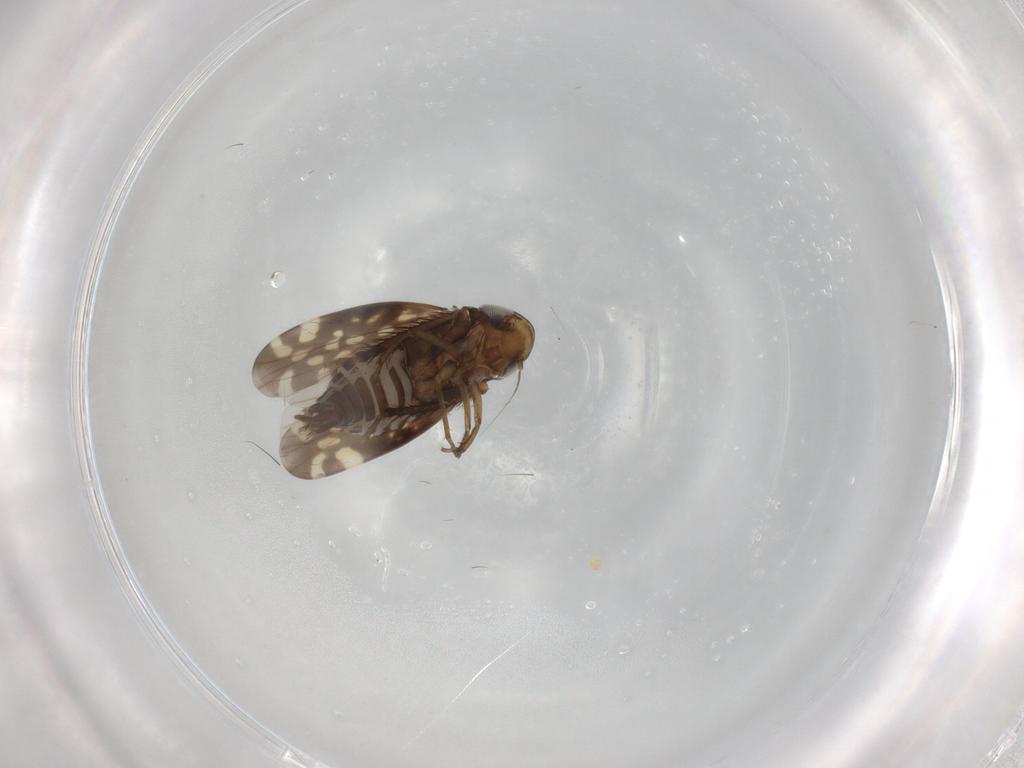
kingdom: Animalia
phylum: Arthropoda
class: Insecta
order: Hemiptera
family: Cicadellidae
